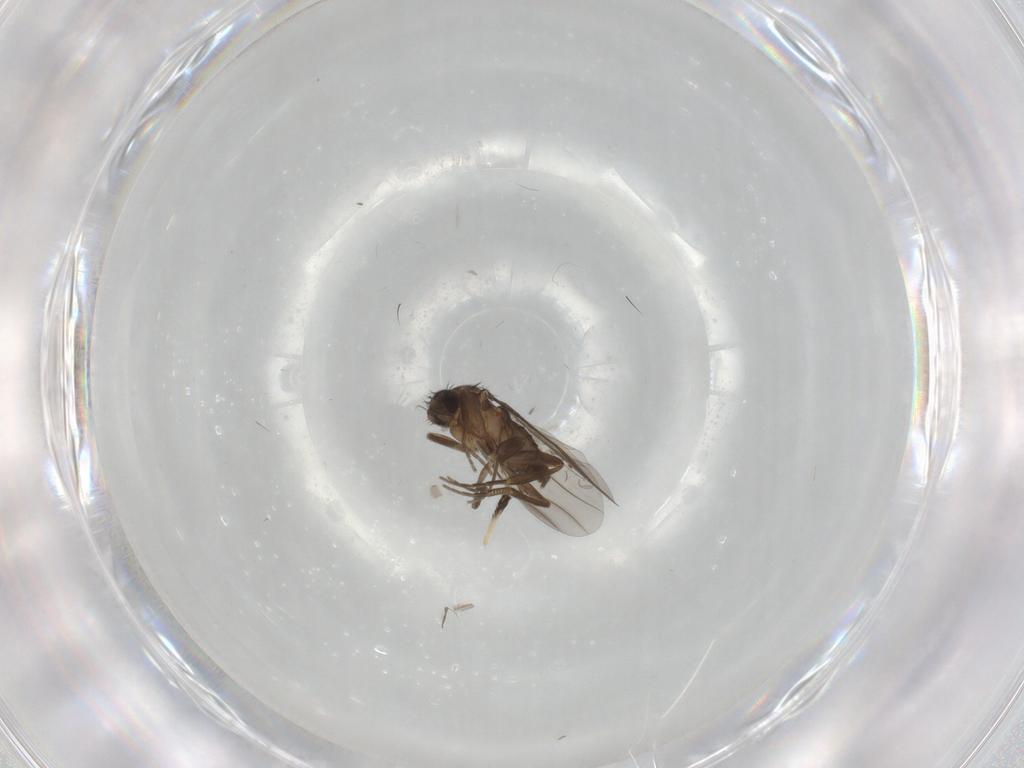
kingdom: Animalia
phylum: Arthropoda
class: Insecta
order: Diptera
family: Phoridae
